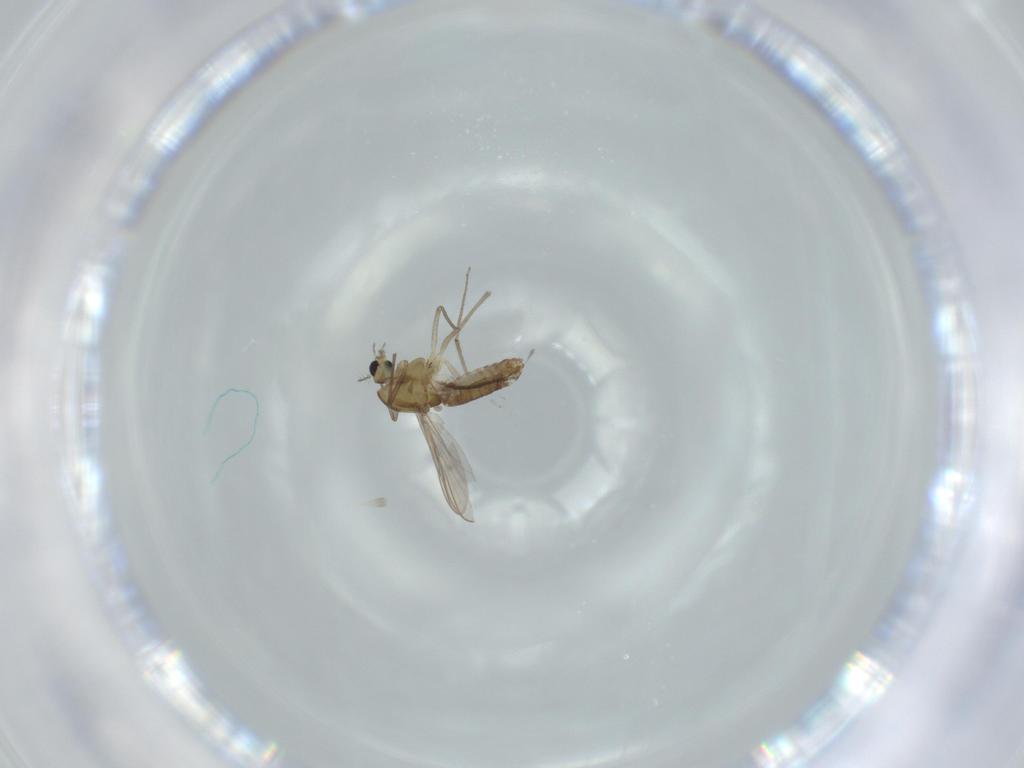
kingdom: Animalia
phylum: Arthropoda
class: Insecta
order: Diptera
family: Chironomidae
